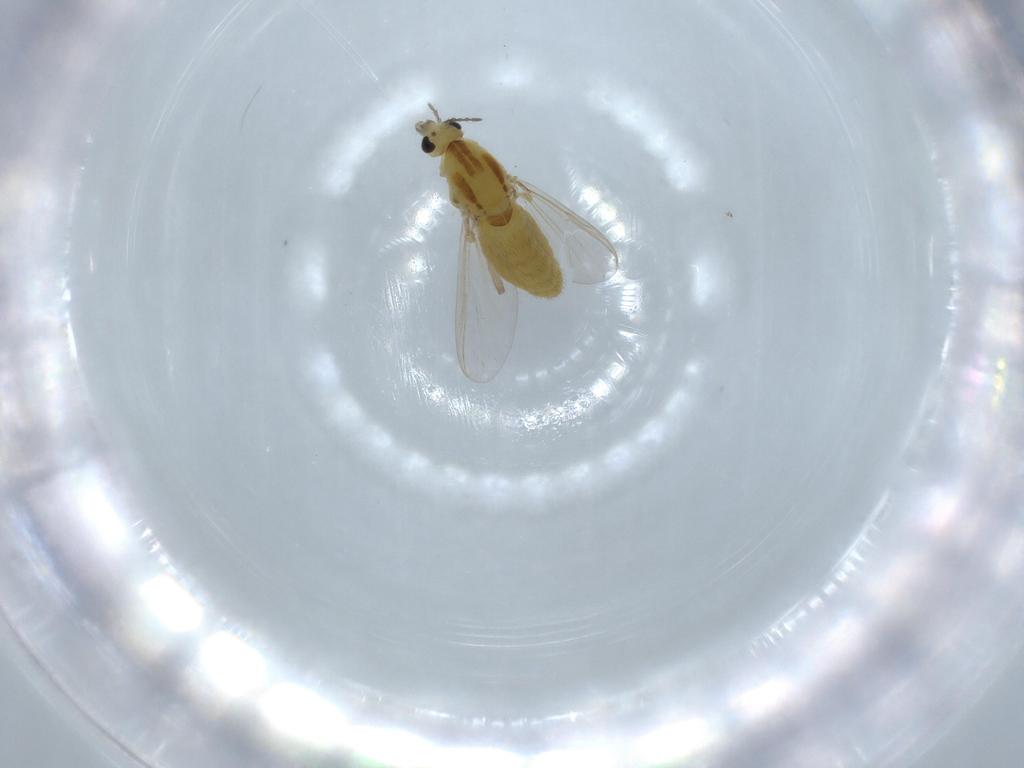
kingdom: Animalia
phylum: Arthropoda
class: Insecta
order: Diptera
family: Chironomidae
